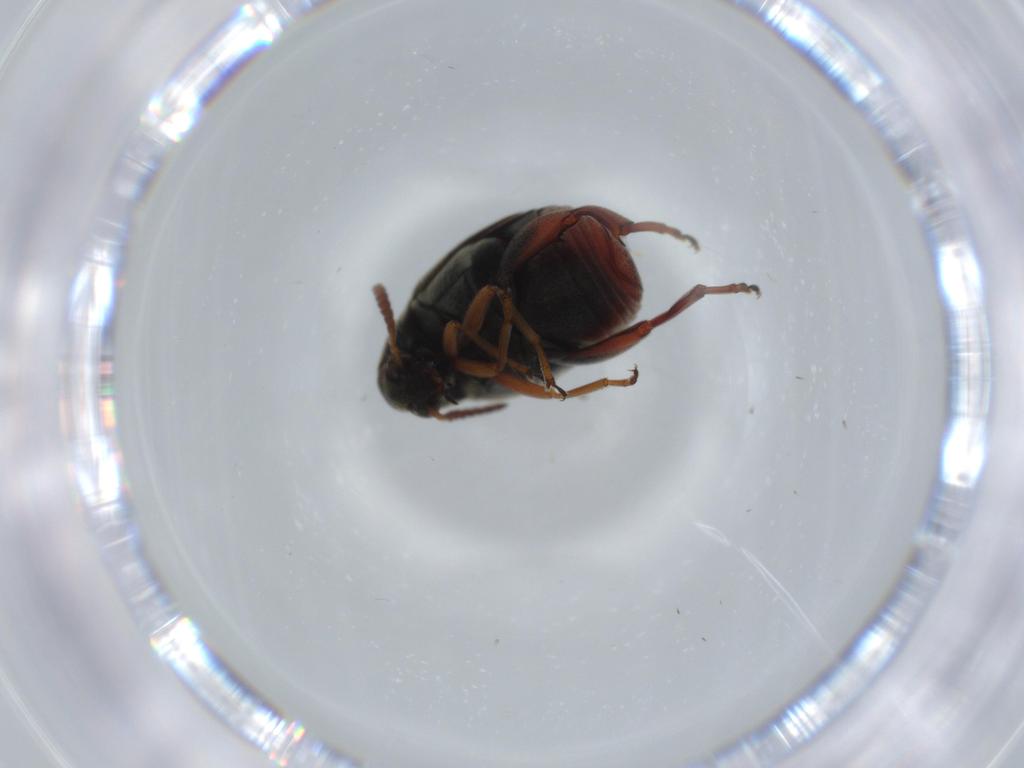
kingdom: Animalia
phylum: Arthropoda
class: Insecta
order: Coleoptera
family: Chrysomelidae
